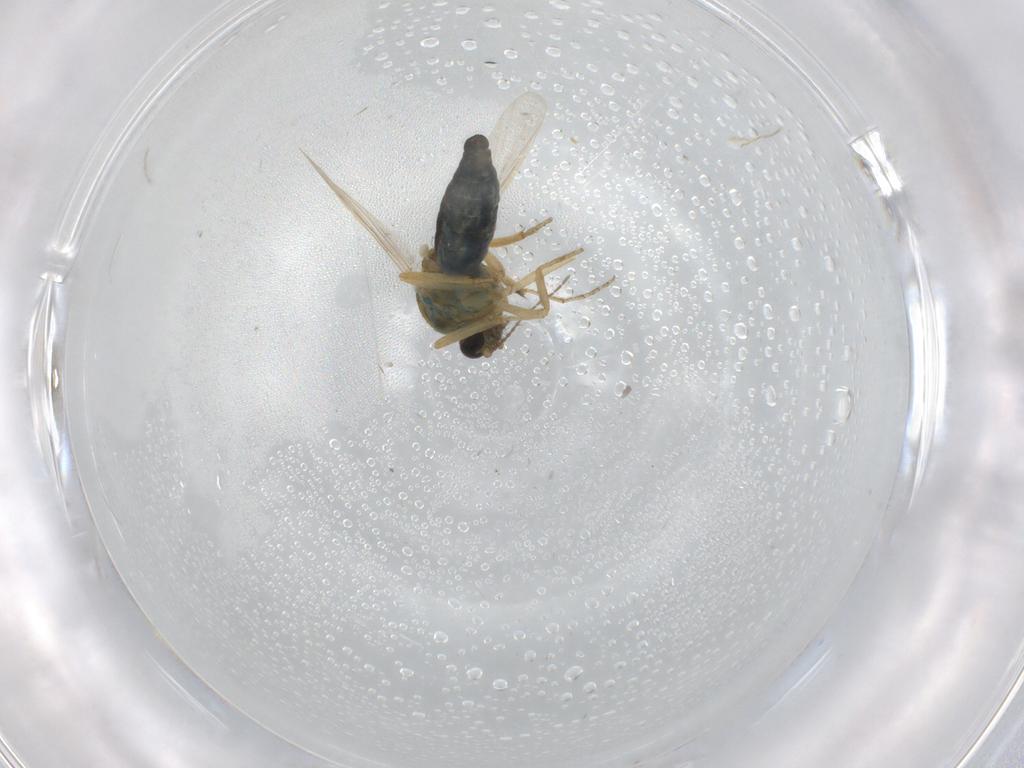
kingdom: Animalia
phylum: Arthropoda
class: Insecta
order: Diptera
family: Ceratopogonidae
